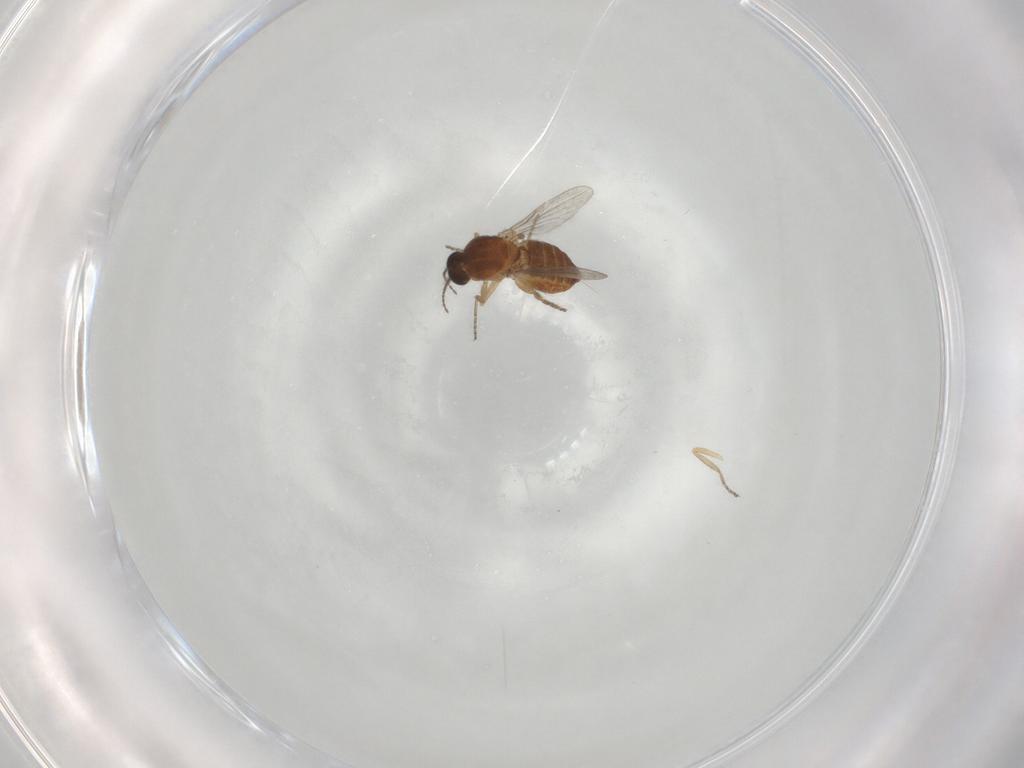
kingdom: Animalia
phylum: Arthropoda
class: Insecta
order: Diptera
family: Ceratopogonidae
